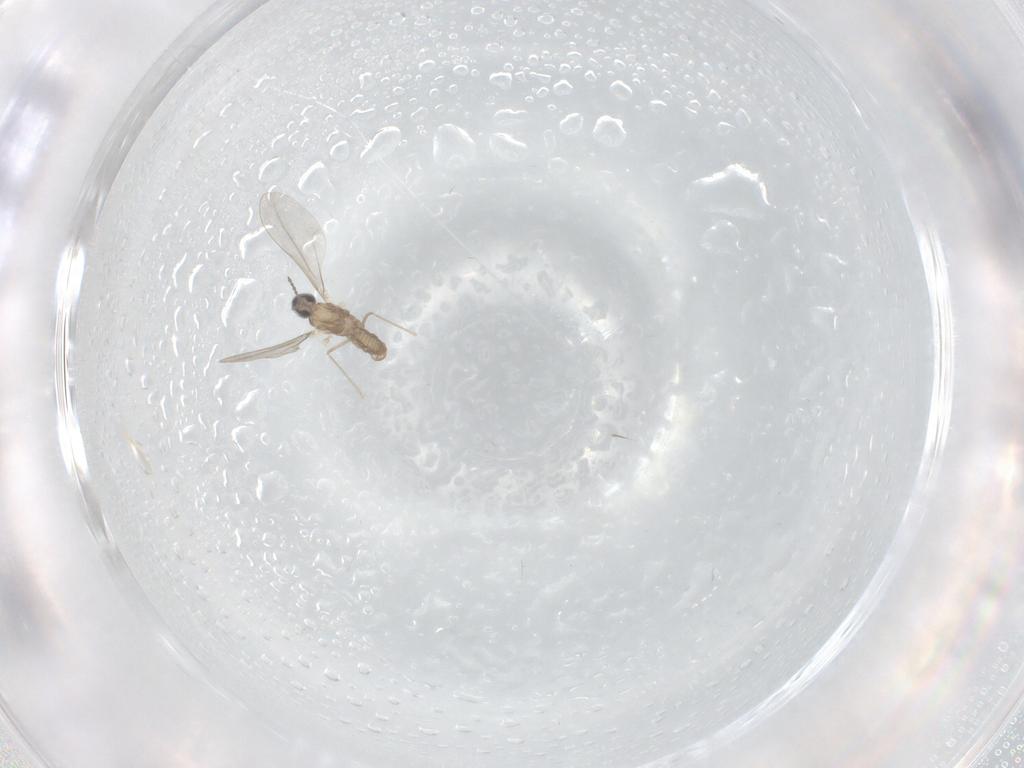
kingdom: Animalia
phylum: Arthropoda
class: Insecta
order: Diptera
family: Cecidomyiidae
